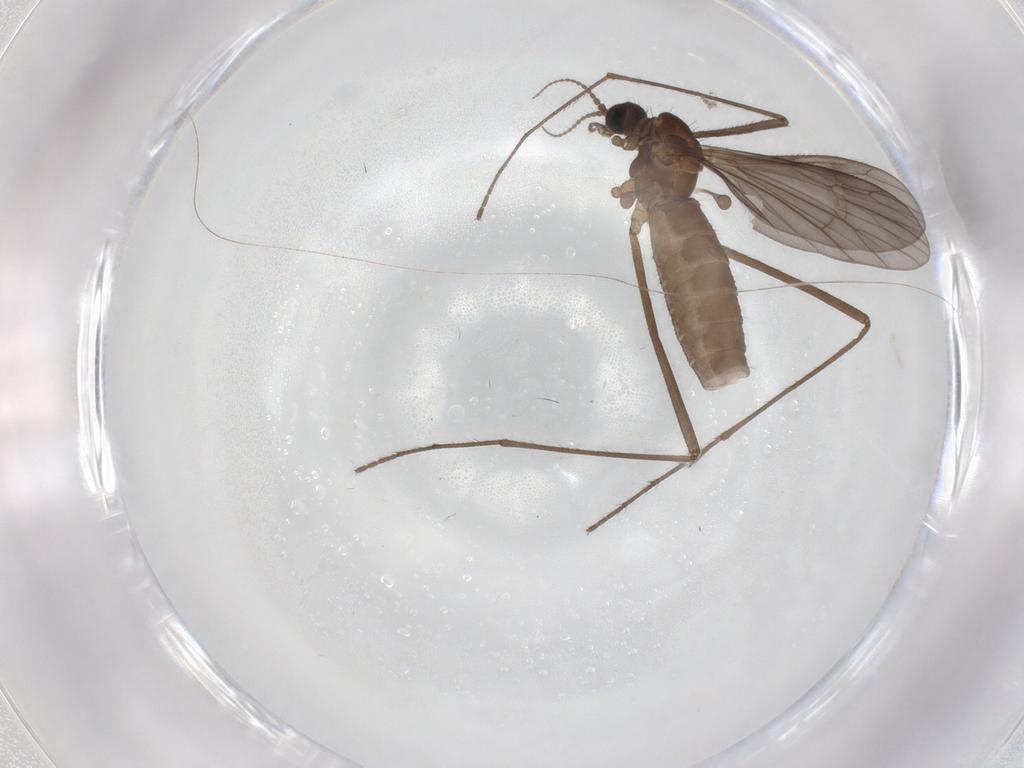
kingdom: Animalia
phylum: Arthropoda
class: Insecta
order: Diptera
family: Limoniidae
